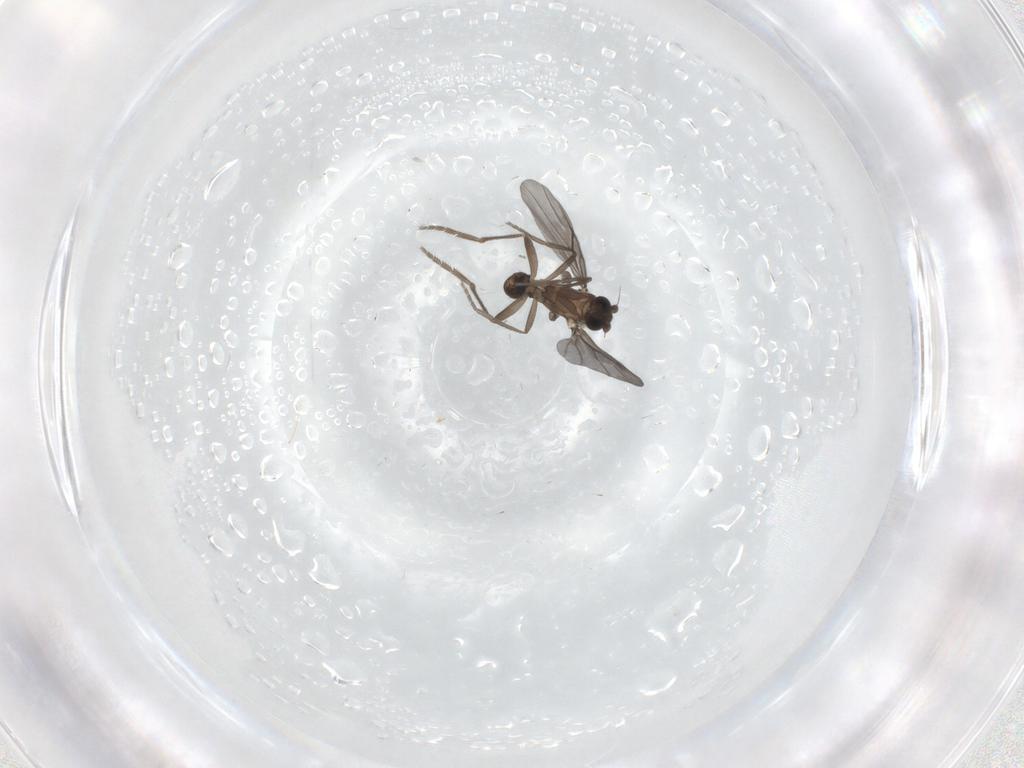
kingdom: Animalia
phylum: Arthropoda
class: Insecta
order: Diptera
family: Phoridae
